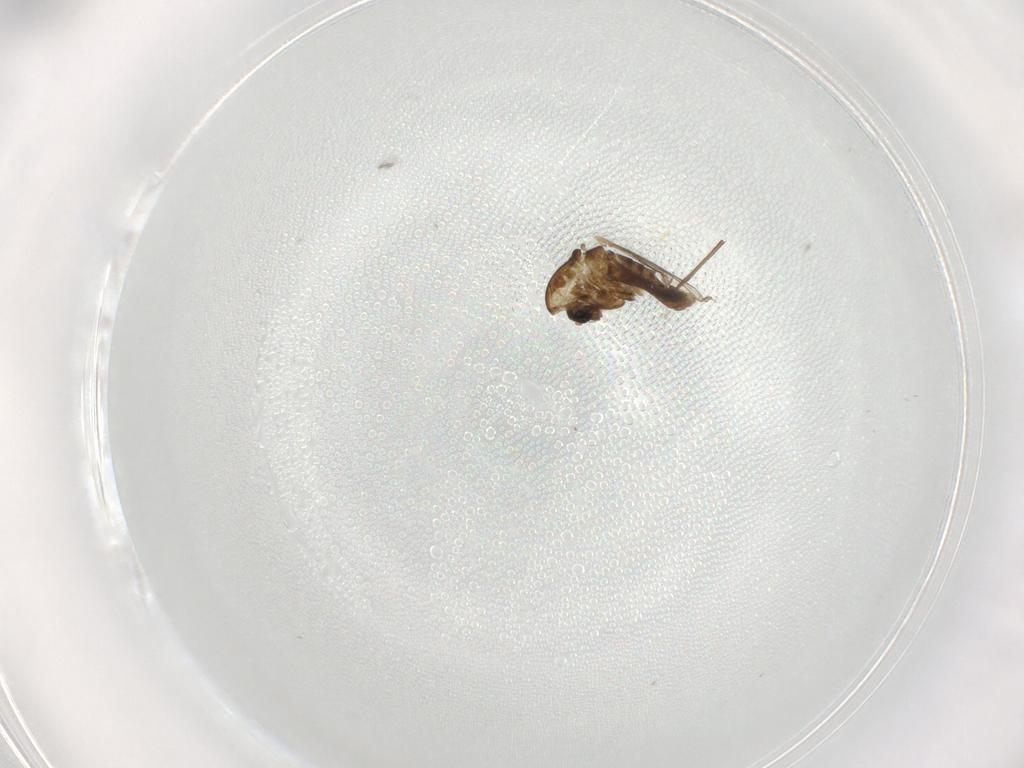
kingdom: Animalia
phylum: Arthropoda
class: Insecta
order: Diptera
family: Chironomidae
